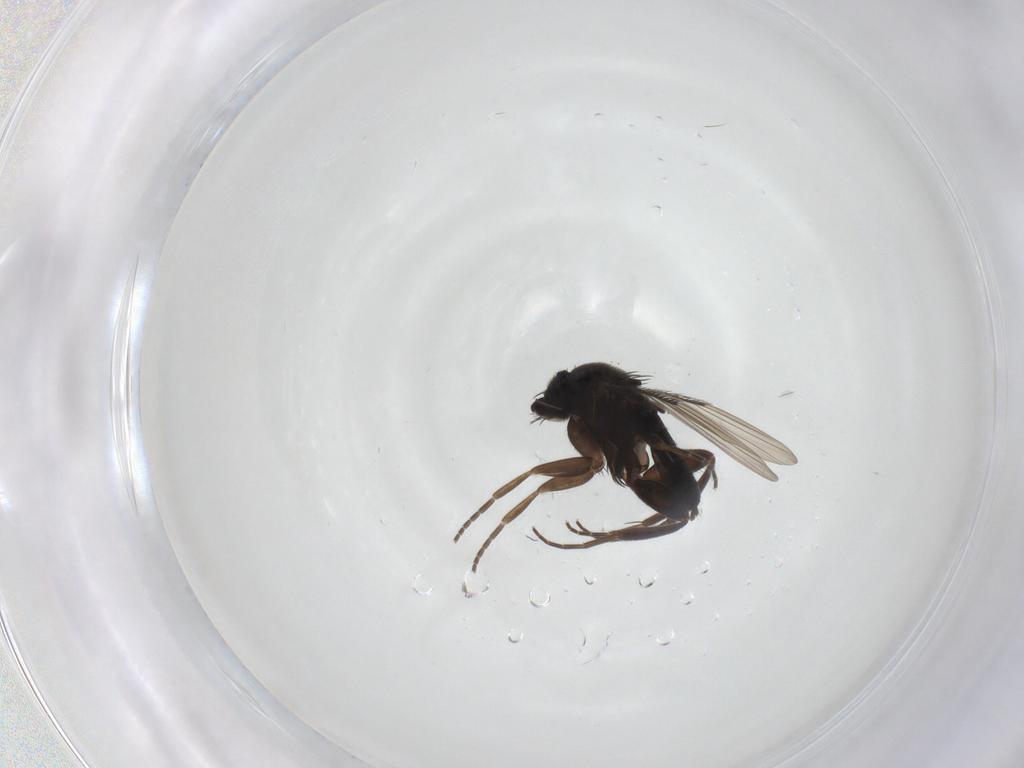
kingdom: Animalia
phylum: Arthropoda
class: Insecta
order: Diptera
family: Phoridae
